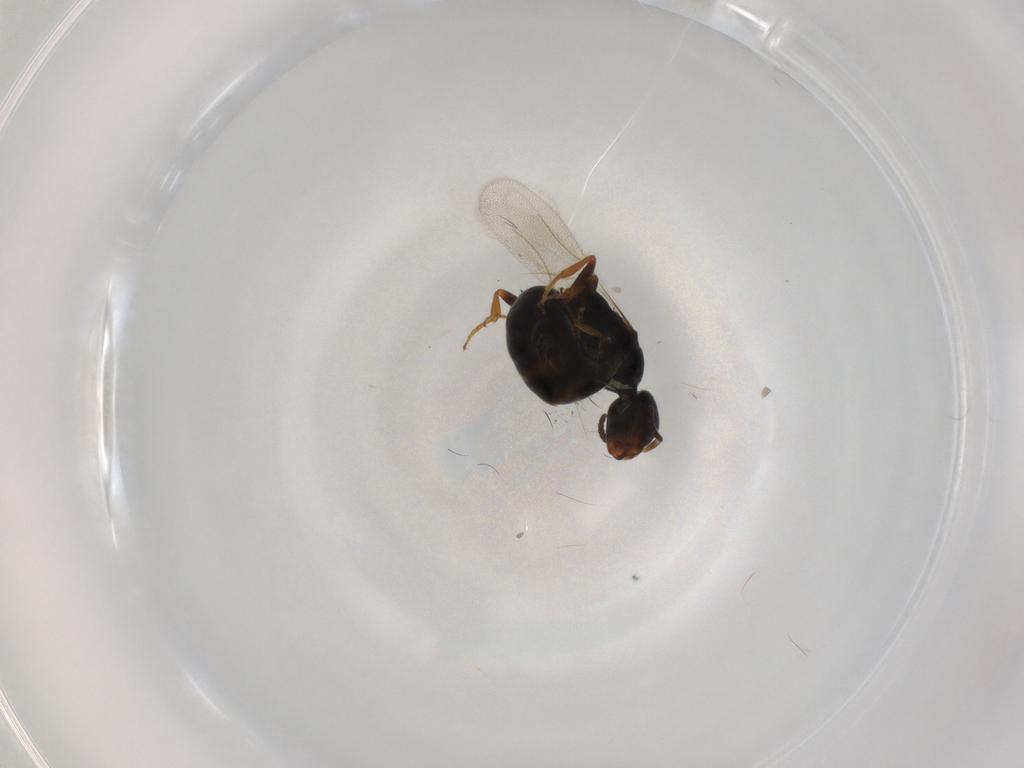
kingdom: Animalia
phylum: Arthropoda
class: Insecta
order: Hymenoptera
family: Bethylidae
